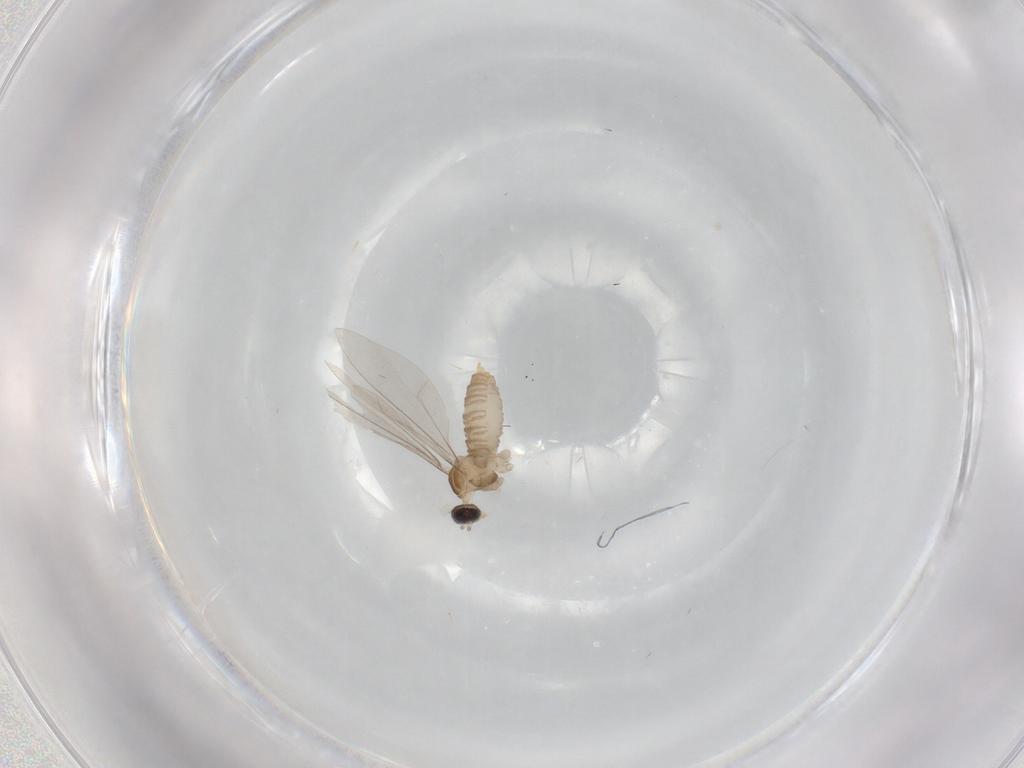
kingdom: Animalia
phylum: Arthropoda
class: Insecta
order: Diptera
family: Cecidomyiidae
